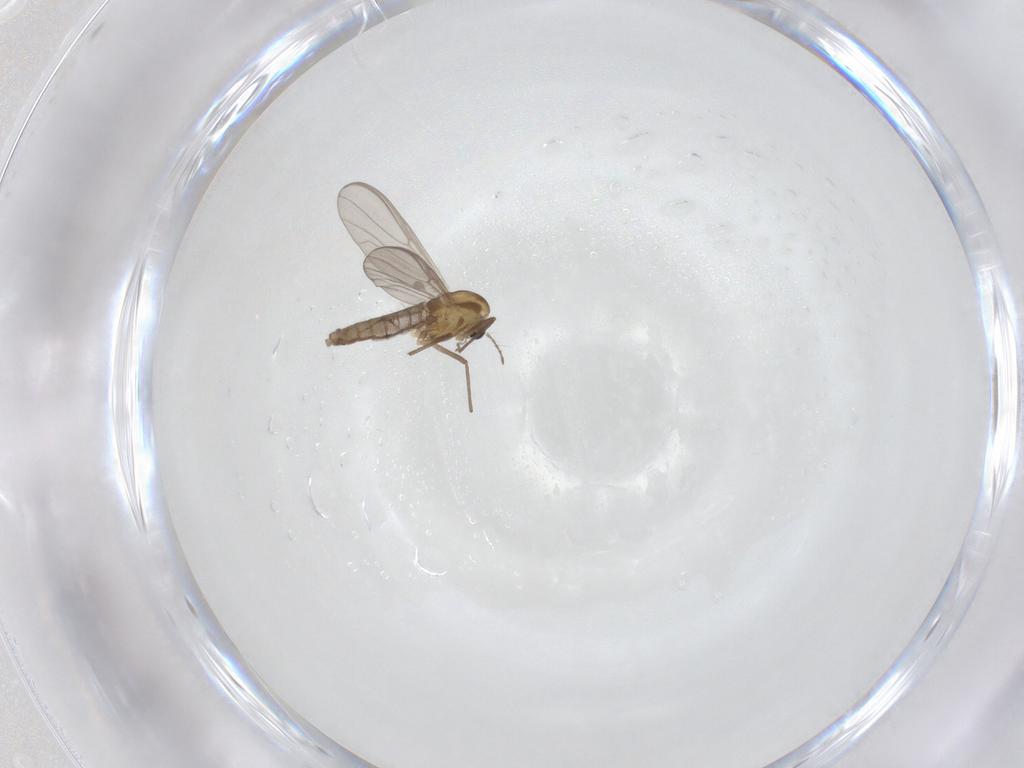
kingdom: Animalia
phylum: Arthropoda
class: Insecta
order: Diptera
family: Chironomidae
